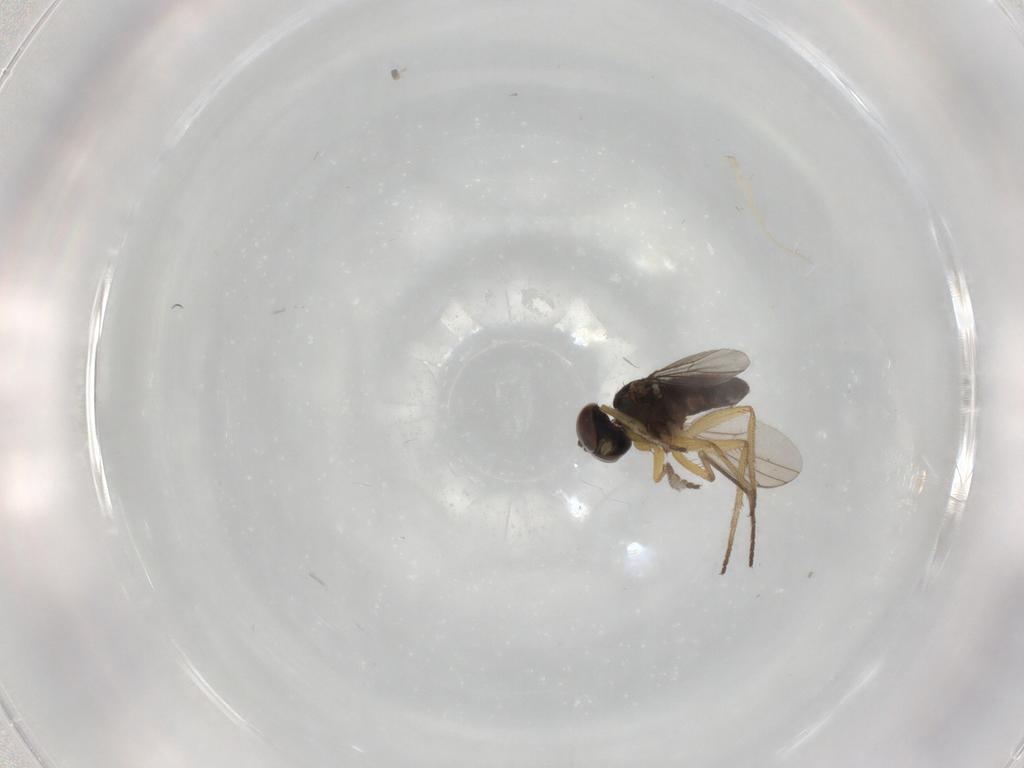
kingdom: Animalia
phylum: Arthropoda
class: Insecta
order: Diptera
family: Dolichopodidae
